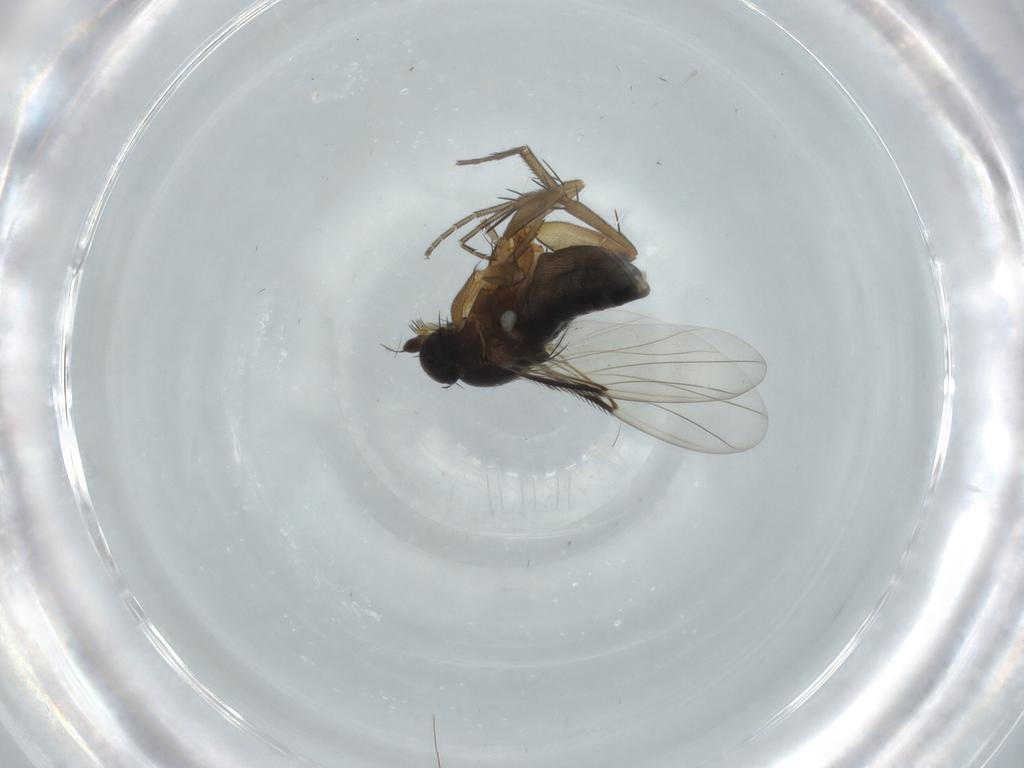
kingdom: Animalia
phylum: Arthropoda
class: Insecta
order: Diptera
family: Phoridae
